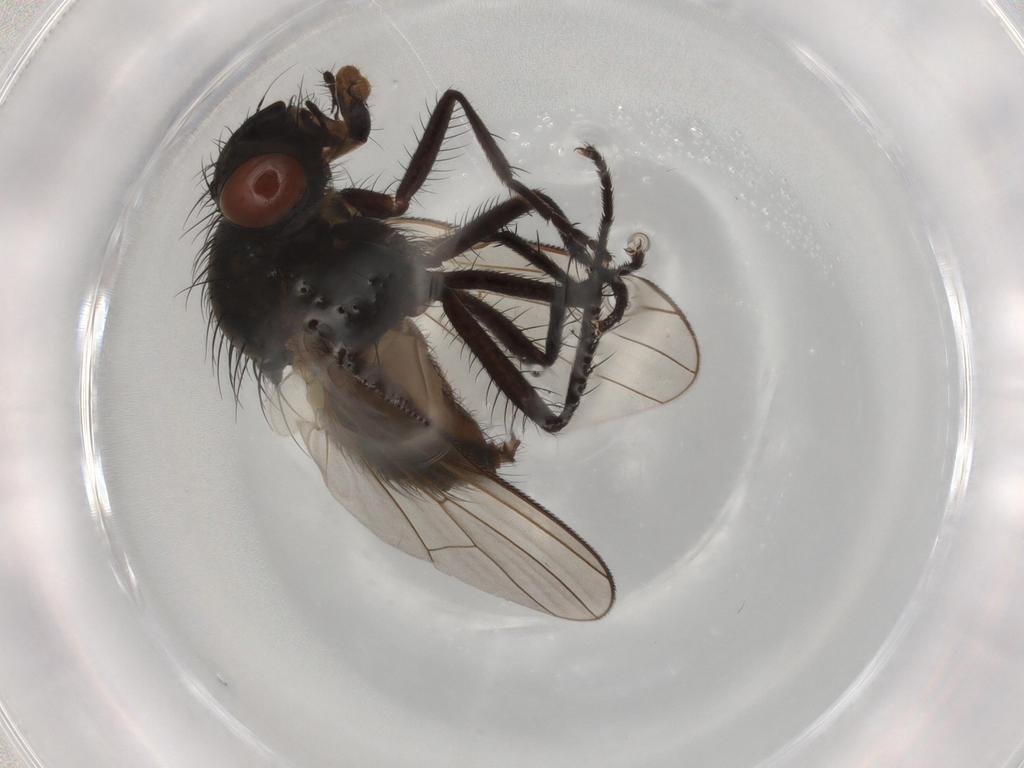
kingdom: Animalia
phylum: Arthropoda
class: Insecta
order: Diptera
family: Anthomyiidae
